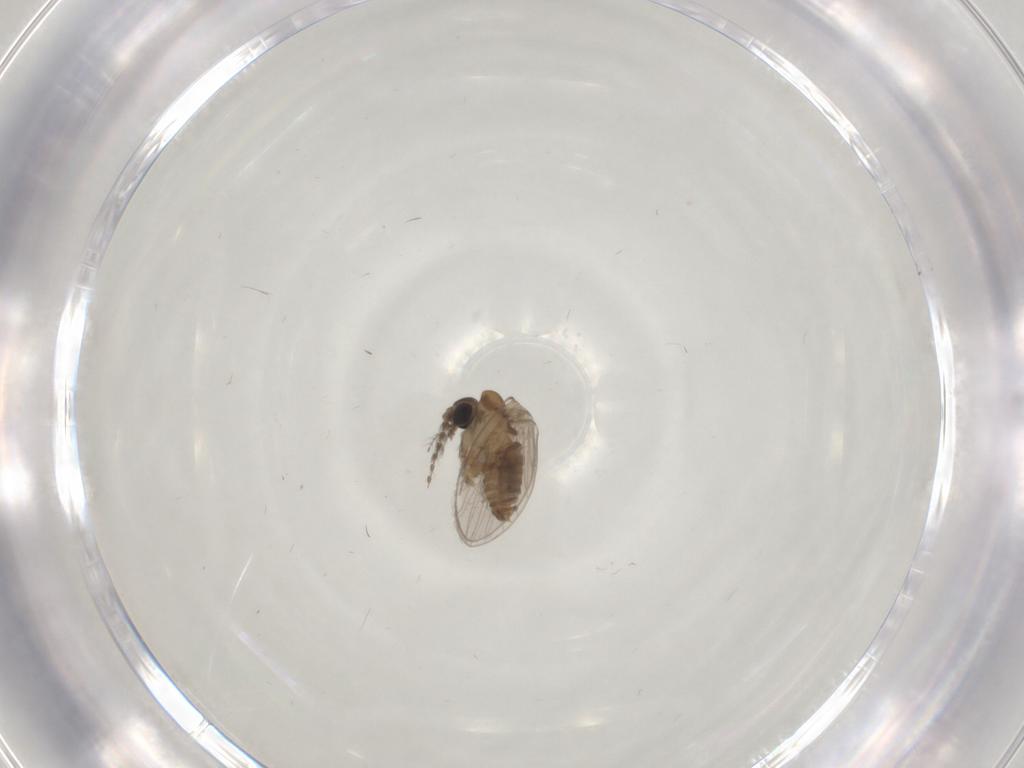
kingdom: Animalia
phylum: Arthropoda
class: Insecta
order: Diptera
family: Psychodidae
